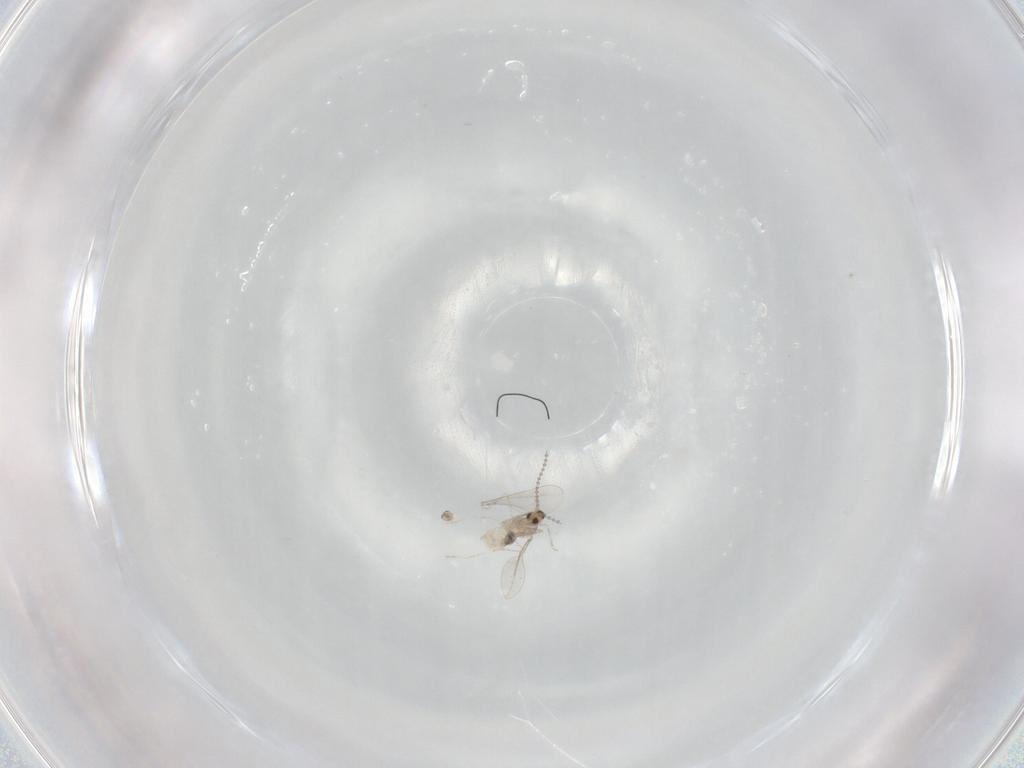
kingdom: Animalia
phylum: Arthropoda
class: Insecta
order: Diptera
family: Cecidomyiidae
